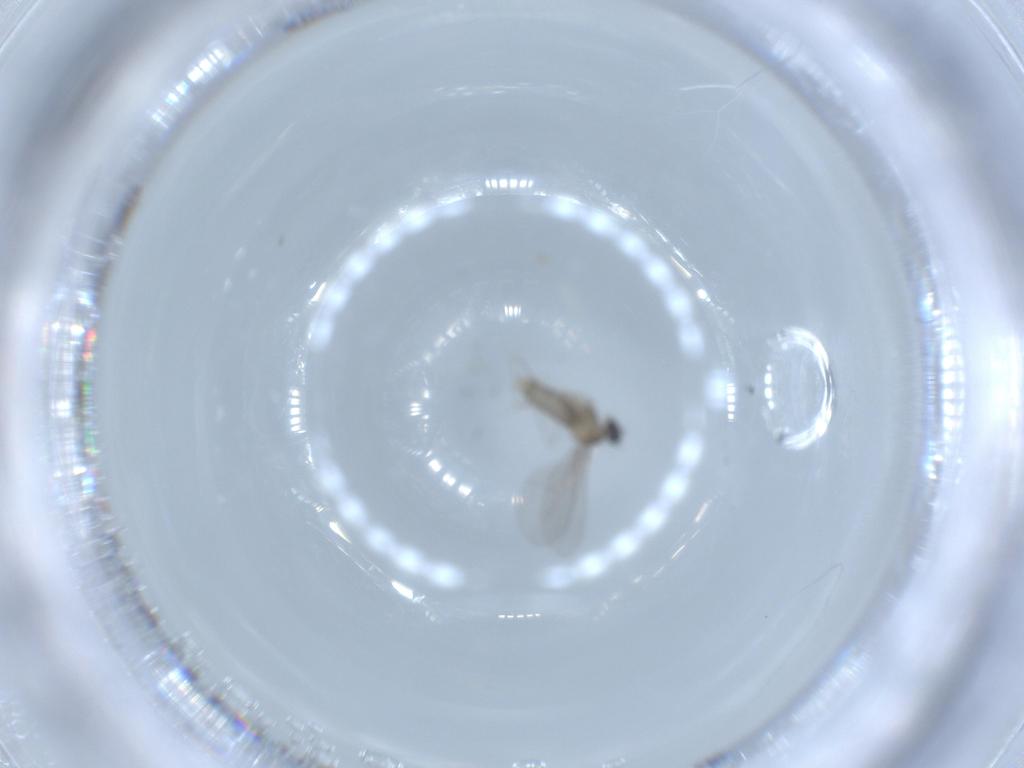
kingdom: Animalia
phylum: Arthropoda
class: Insecta
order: Diptera
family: Cecidomyiidae
